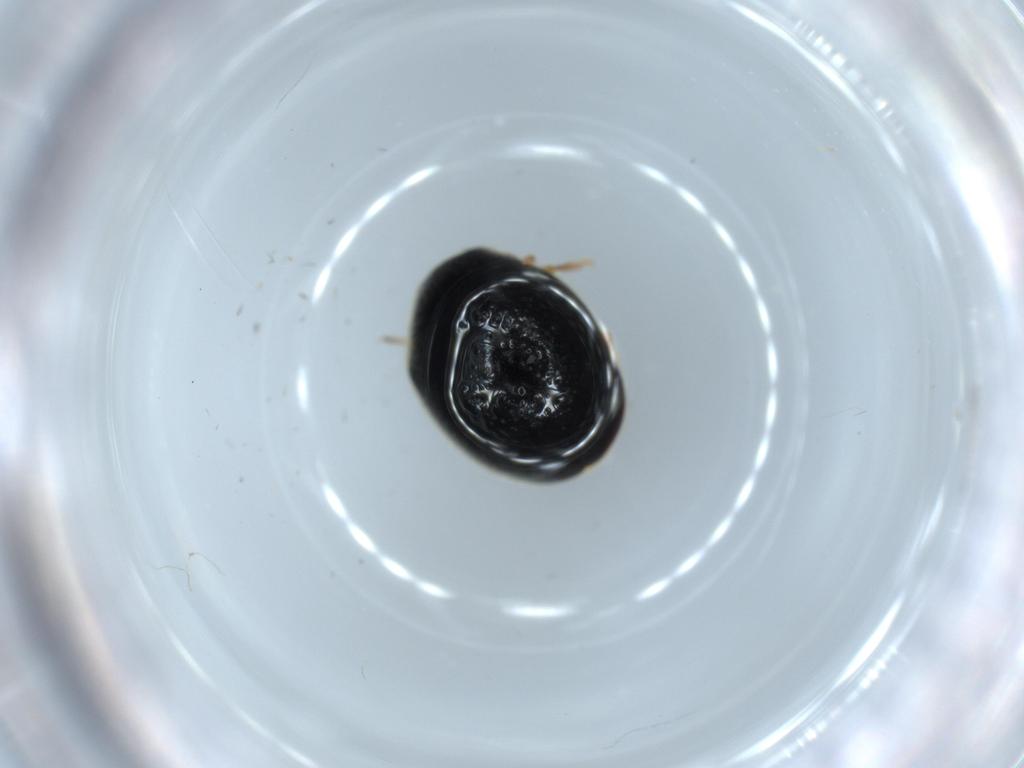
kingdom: Animalia
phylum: Arthropoda
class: Insecta
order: Coleoptera
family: Coccinellidae
